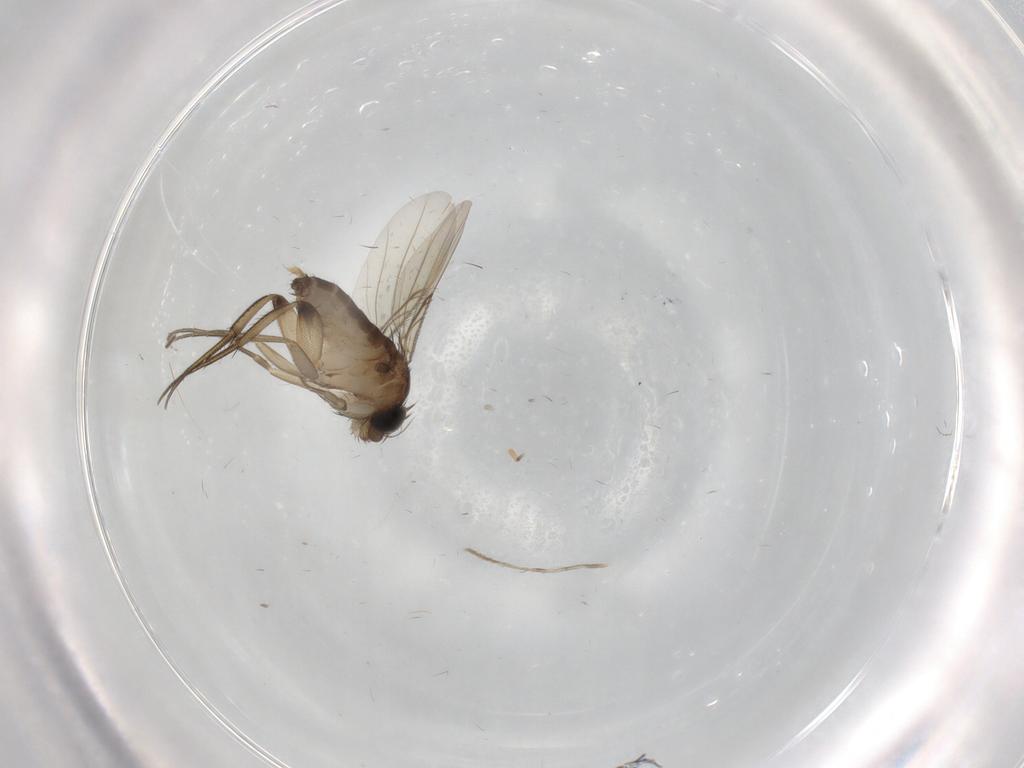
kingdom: Animalia
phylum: Arthropoda
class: Insecta
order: Diptera
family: Phoridae
